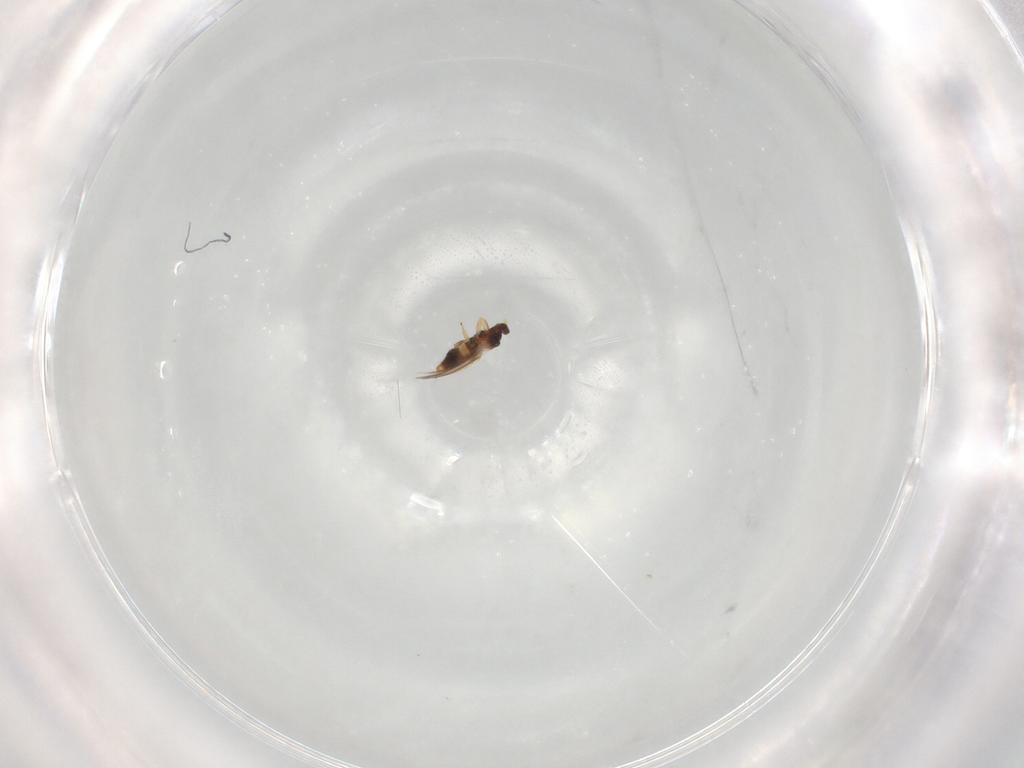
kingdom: Animalia
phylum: Arthropoda
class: Insecta
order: Thysanoptera
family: Thripidae
